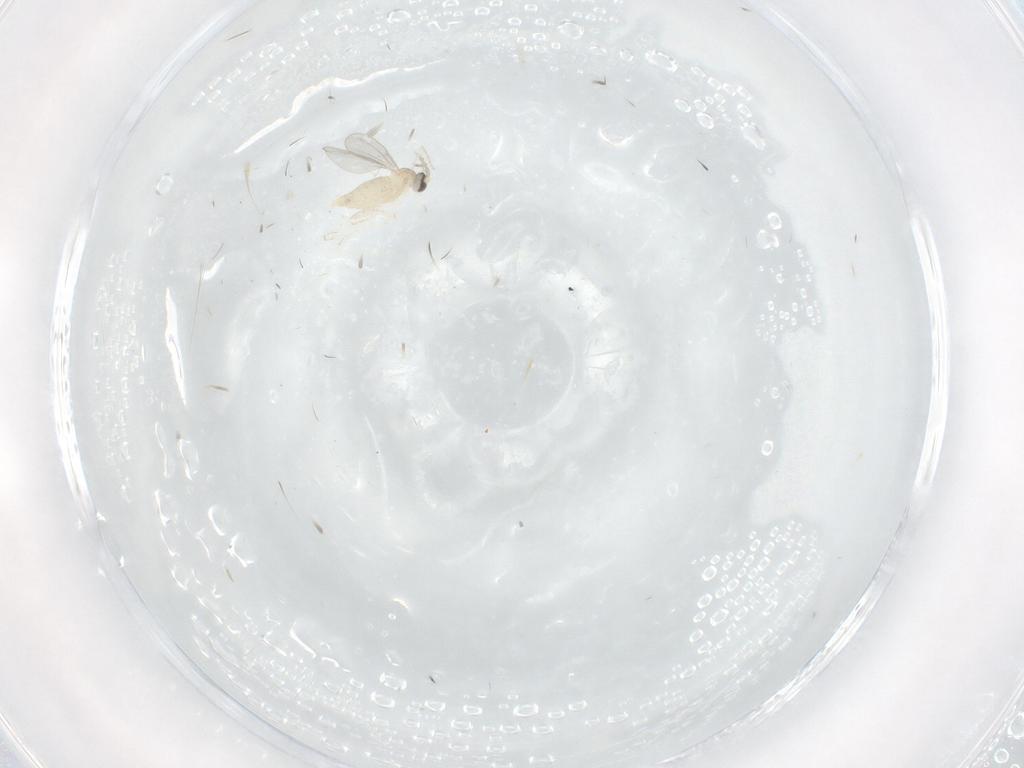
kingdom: Animalia
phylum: Arthropoda
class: Insecta
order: Diptera
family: Cecidomyiidae
